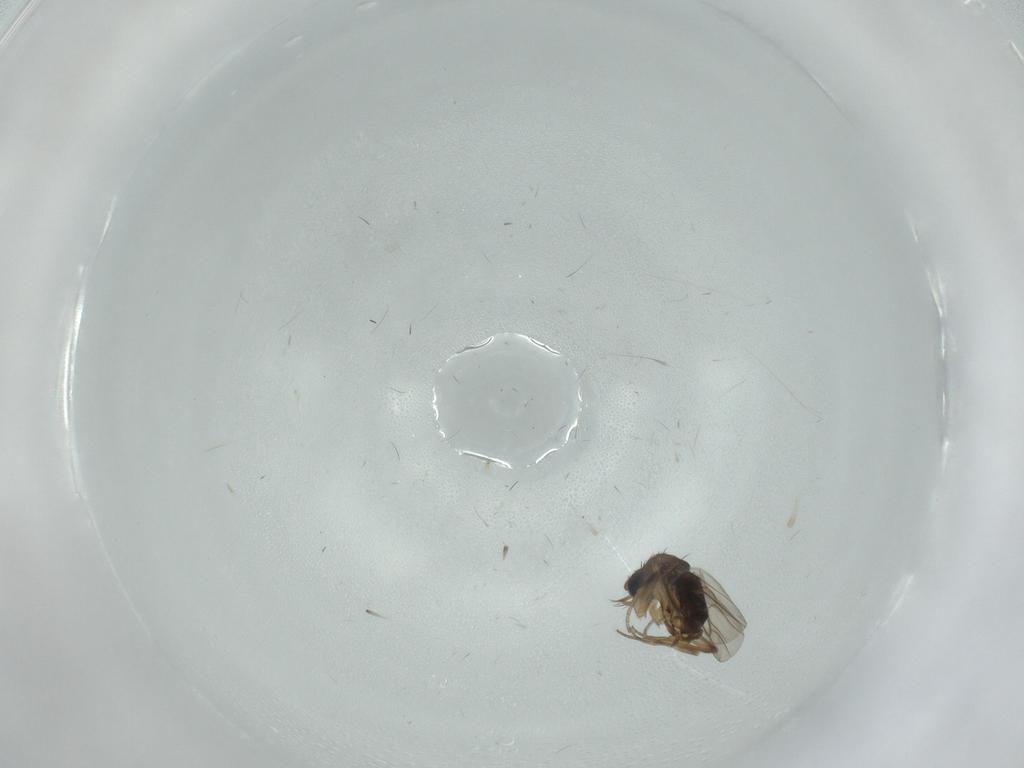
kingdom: Animalia
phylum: Arthropoda
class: Insecta
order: Diptera
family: Phoridae
